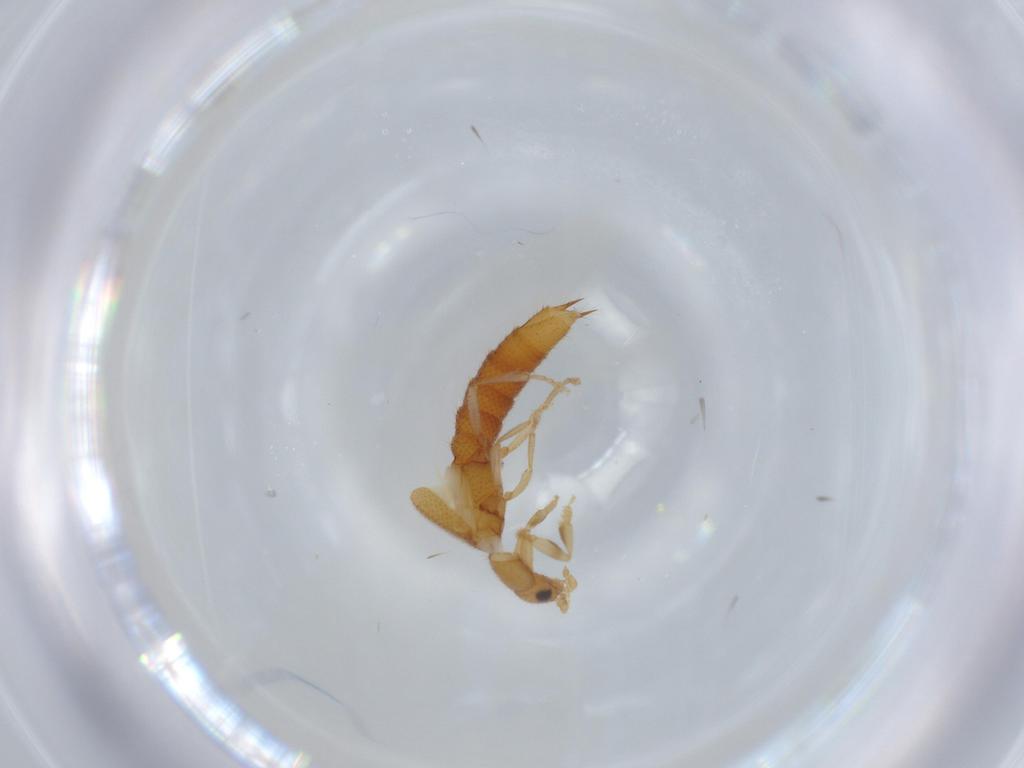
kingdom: Animalia
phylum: Arthropoda
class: Insecta
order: Coleoptera
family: Staphylinidae
